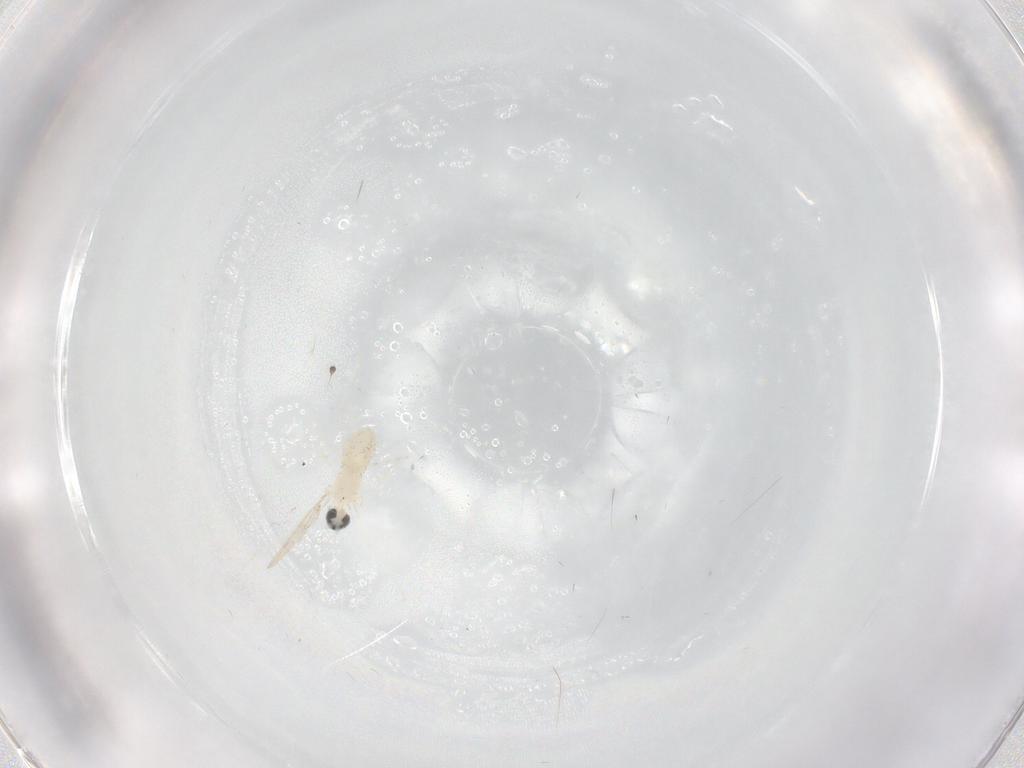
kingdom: Animalia
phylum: Arthropoda
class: Insecta
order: Diptera
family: Cecidomyiidae
